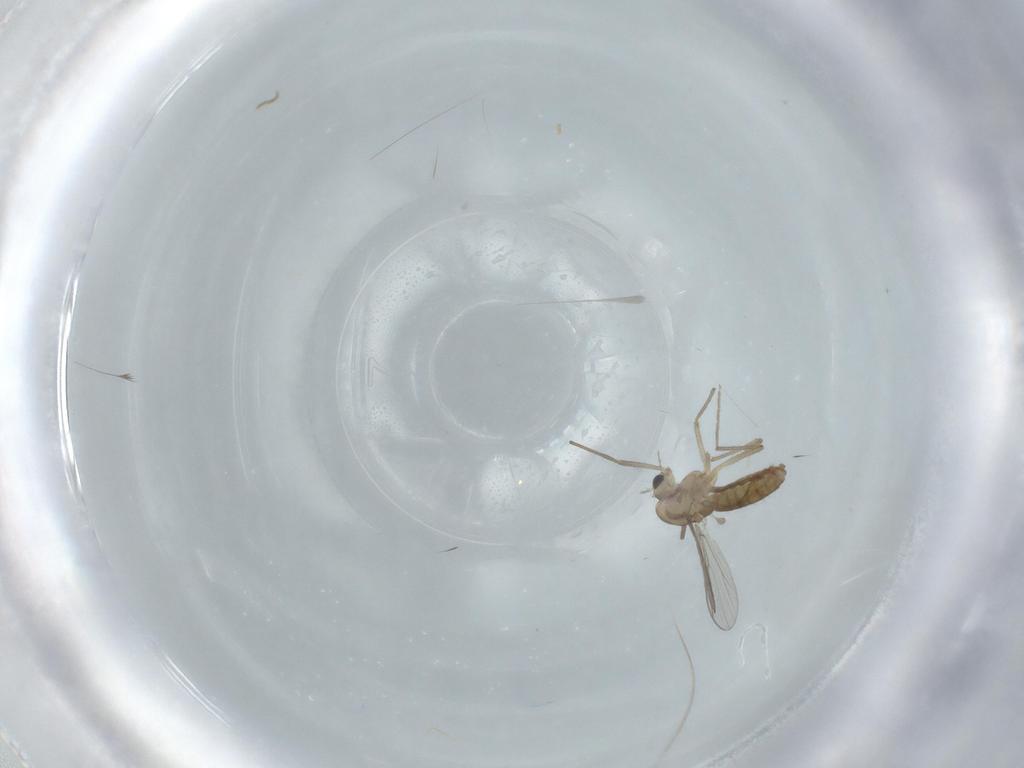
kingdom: Animalia
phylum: Arthropoda
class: Insecta
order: Diptera
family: Chironomidae
